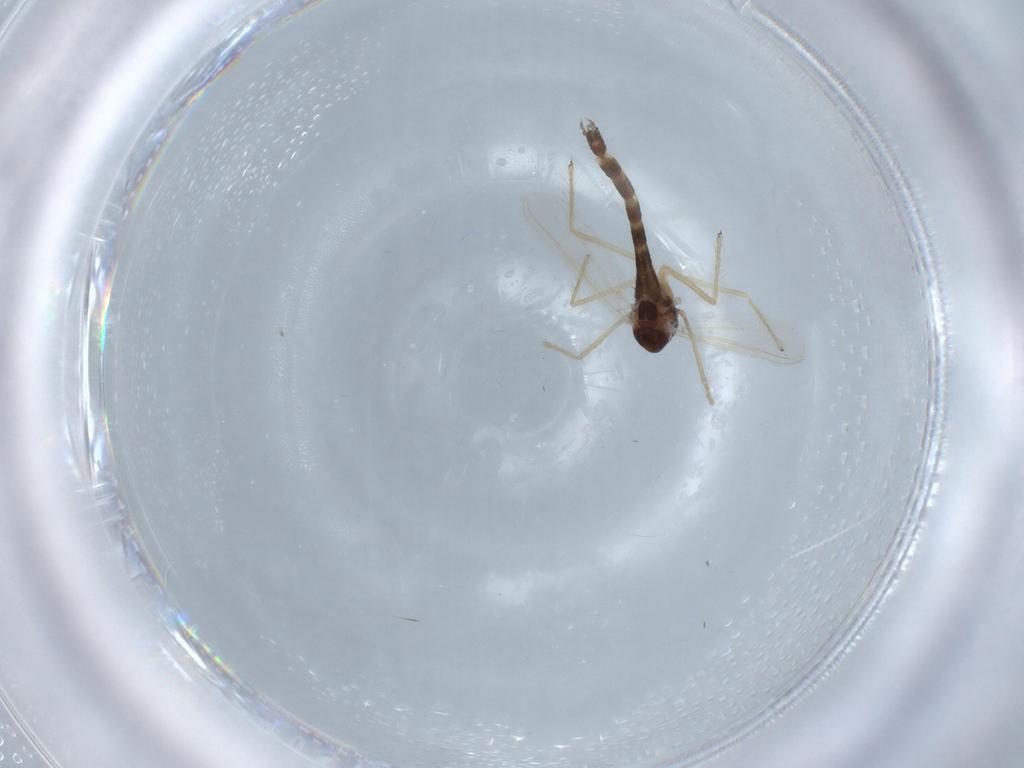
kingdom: Animalia
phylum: Arthropoda
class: Insecta
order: Diptera
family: Chironomidae
